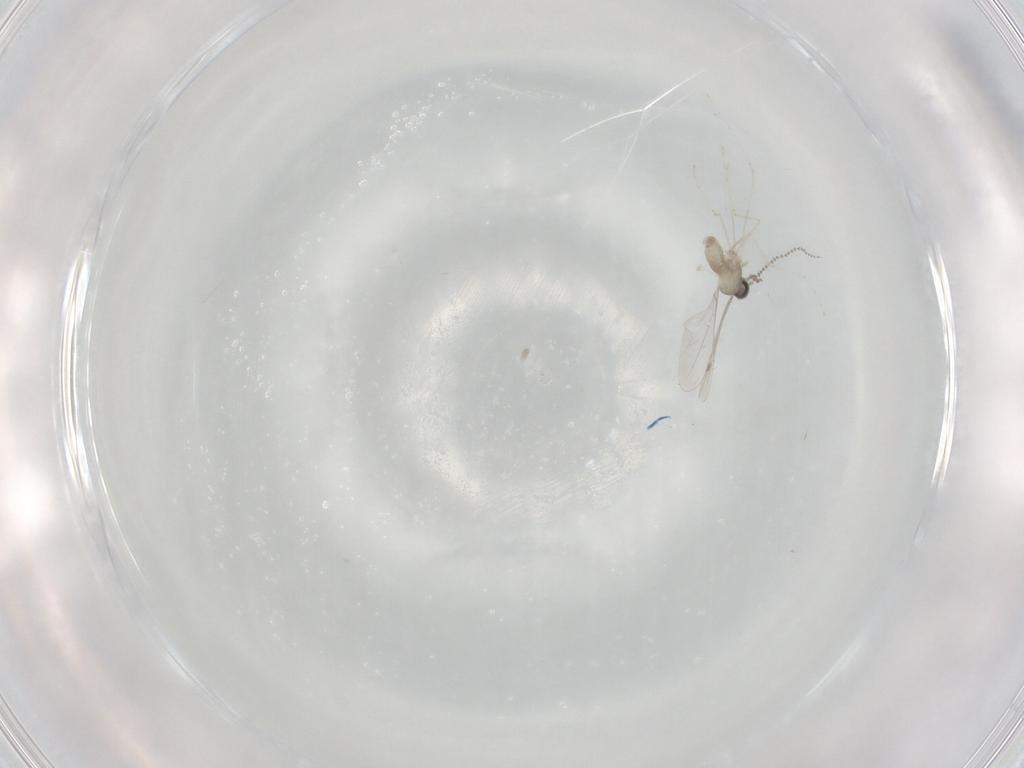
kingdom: Animalia
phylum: Arthropoda
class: Insecta
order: Diptera
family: Cecidomyiidae
